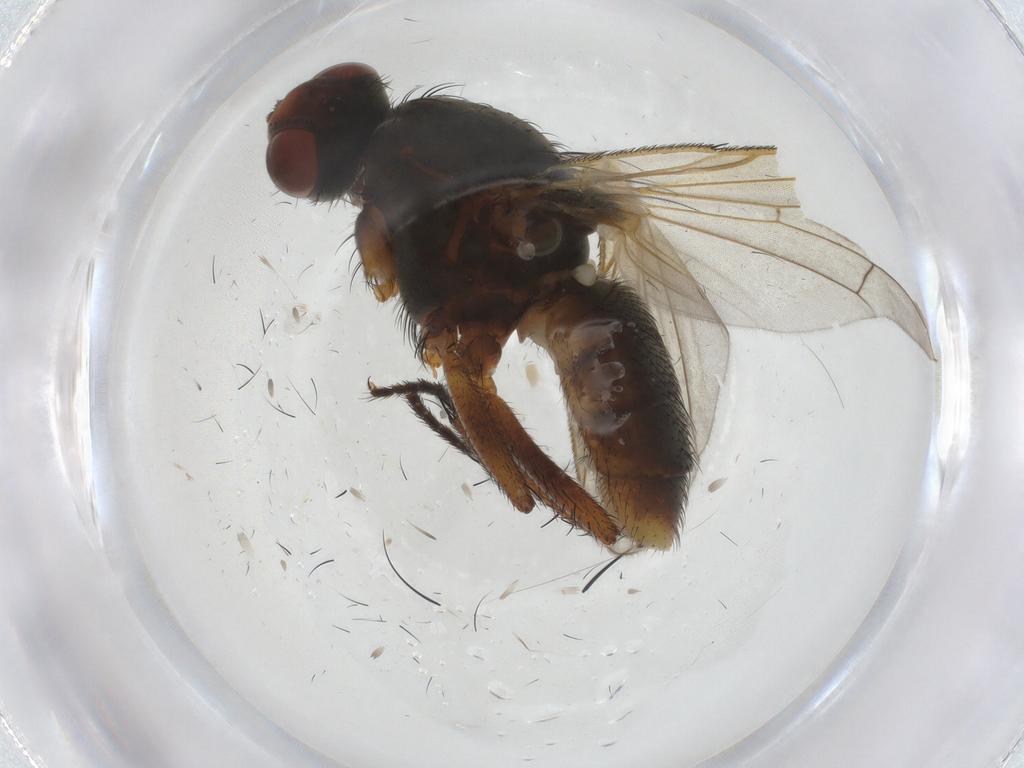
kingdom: Animalia
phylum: Arthropoda
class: Insecta
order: Diptera
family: Anthomyiidae
